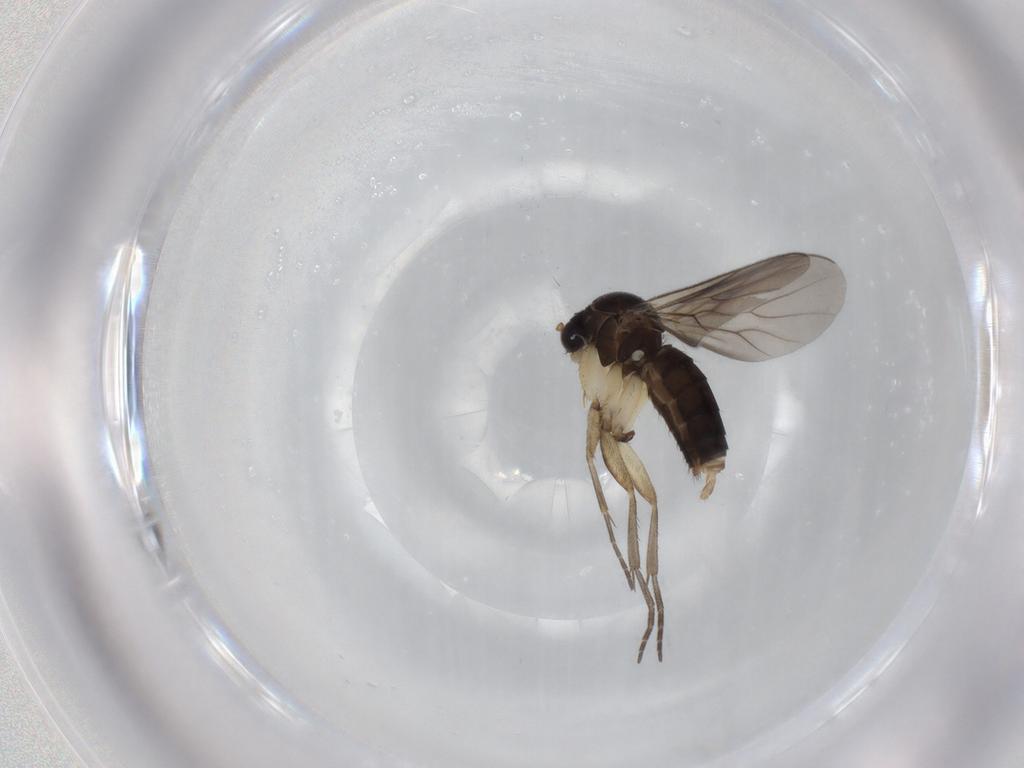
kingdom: Animalia
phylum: Arthropoda
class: Insecta
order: Diptera
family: Mycetophilidae
